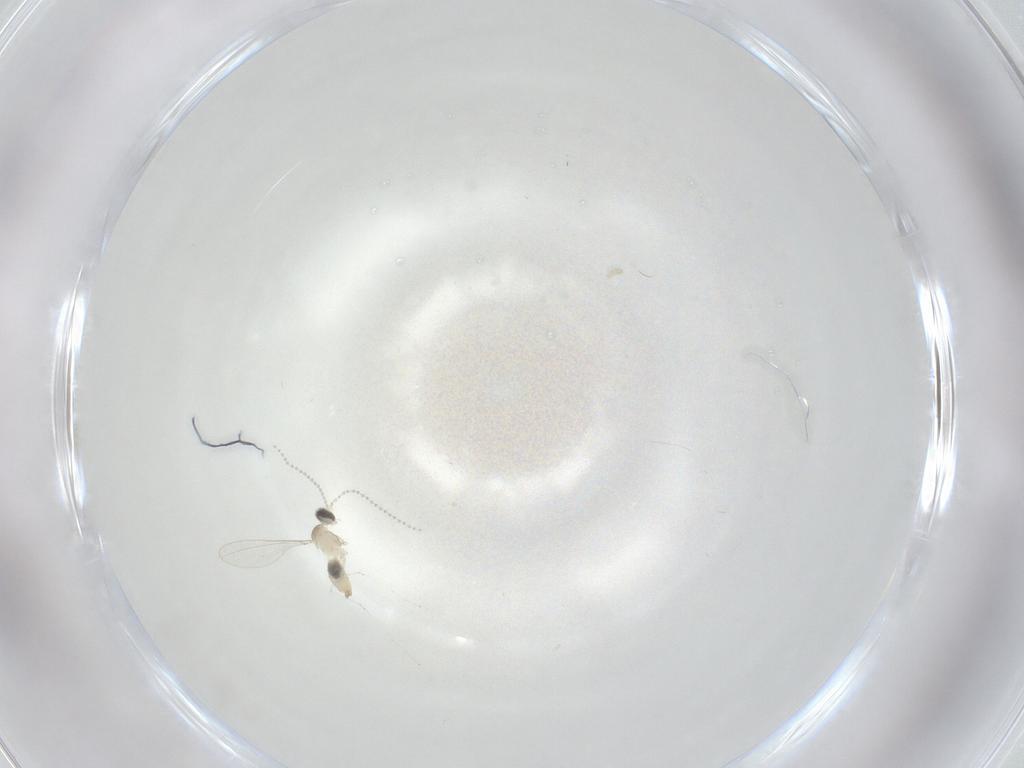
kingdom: Animalia
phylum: Arthropoda
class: Insecta
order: Diptera
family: Cecidomyiidae
